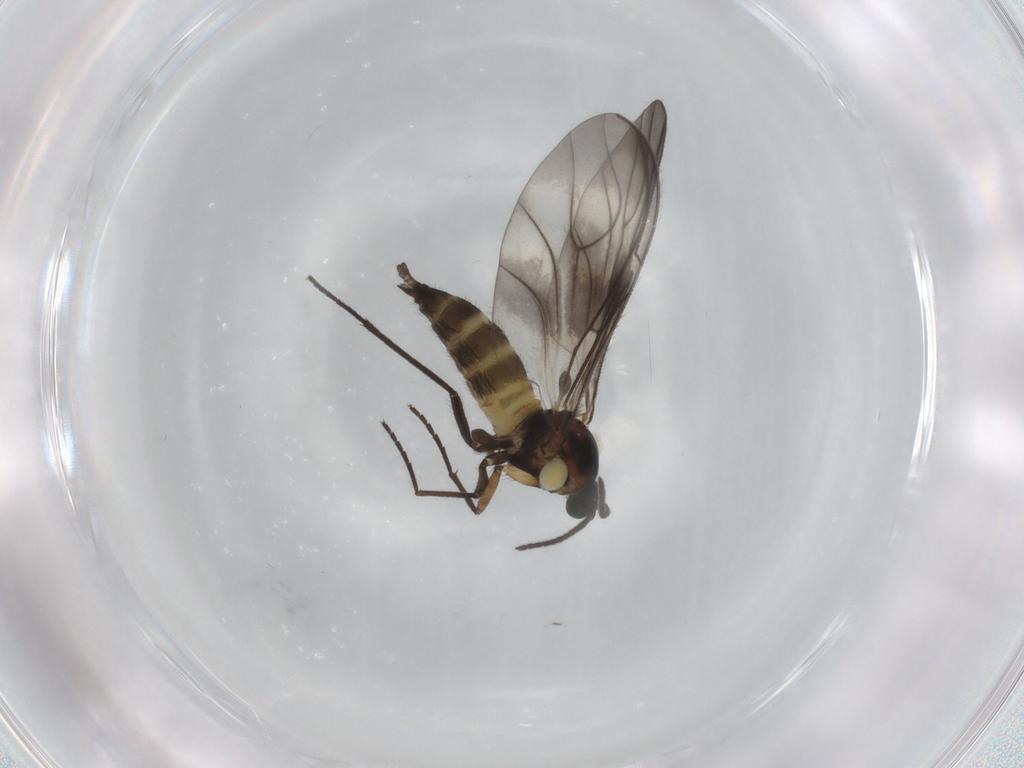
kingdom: Animalia
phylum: Arthropoda
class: Insecta
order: Diptera
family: Sciaridae
